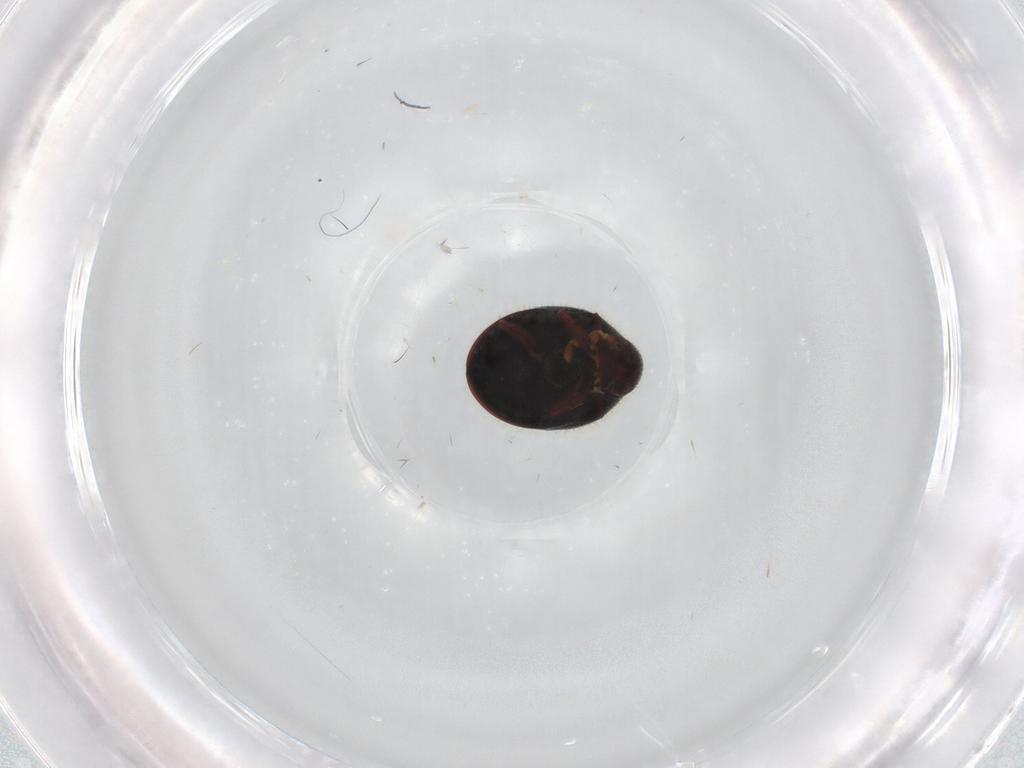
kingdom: Animalia
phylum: Arthropoda
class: Insecta
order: Coleoptera
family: Ptinidae
